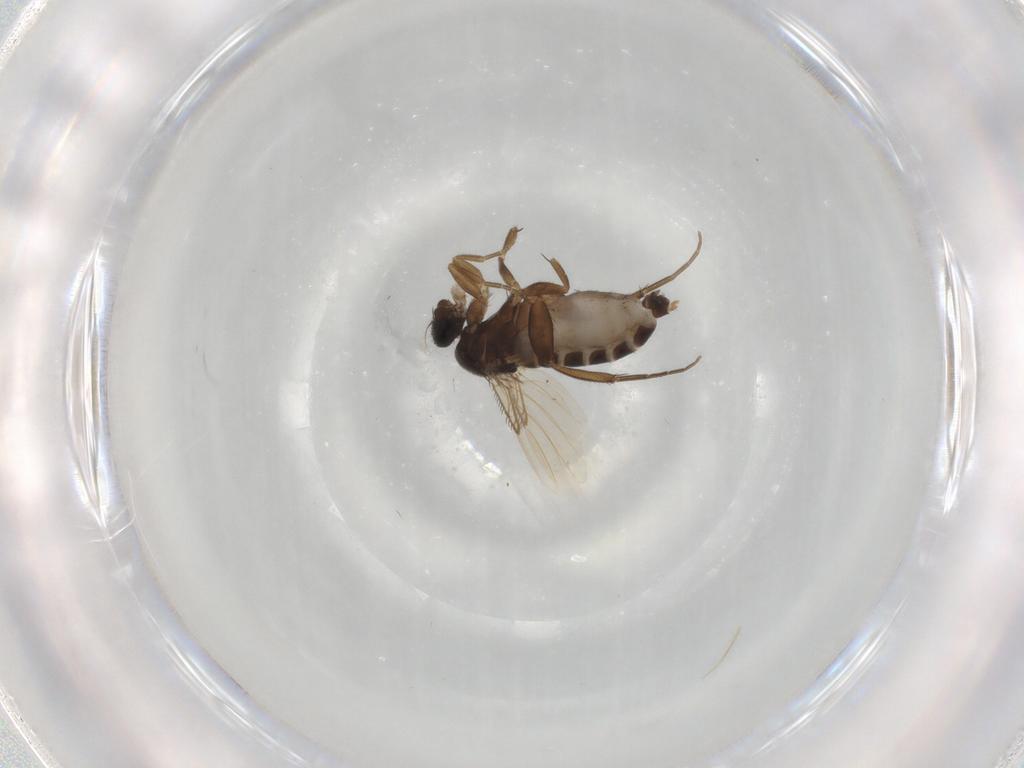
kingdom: Animalia
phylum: Arthropoda
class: Insecta
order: Diptera
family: Phoridae
